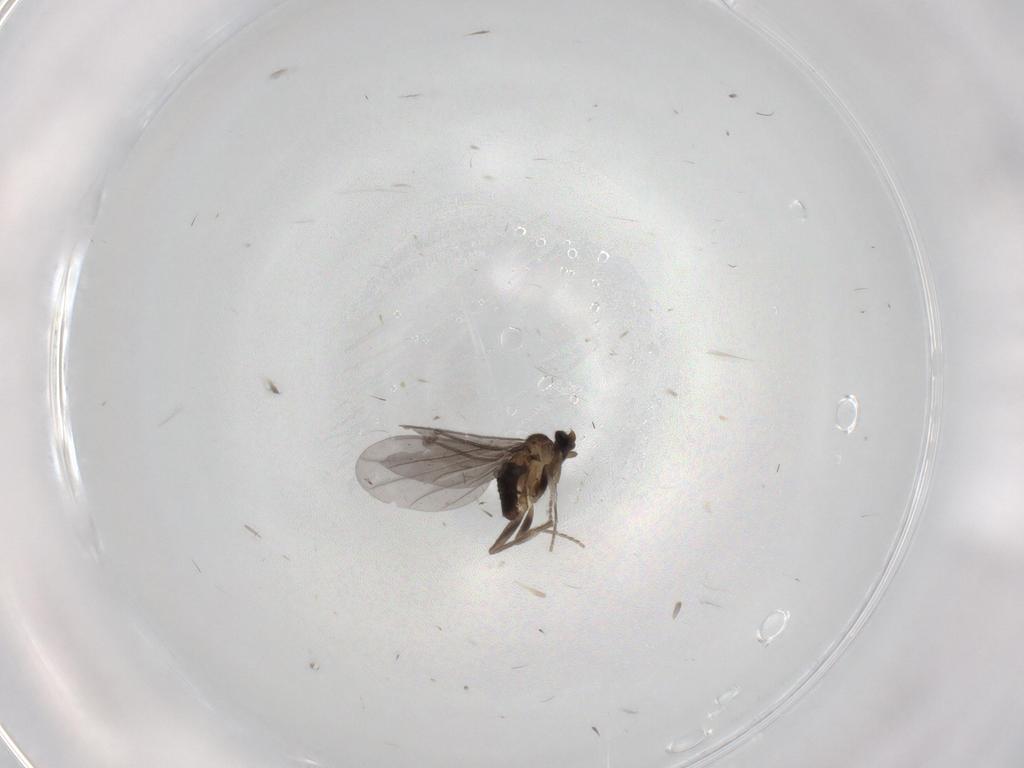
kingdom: Animalia
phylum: Arthropoda
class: Insecta
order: Diptera
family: Phoridae
